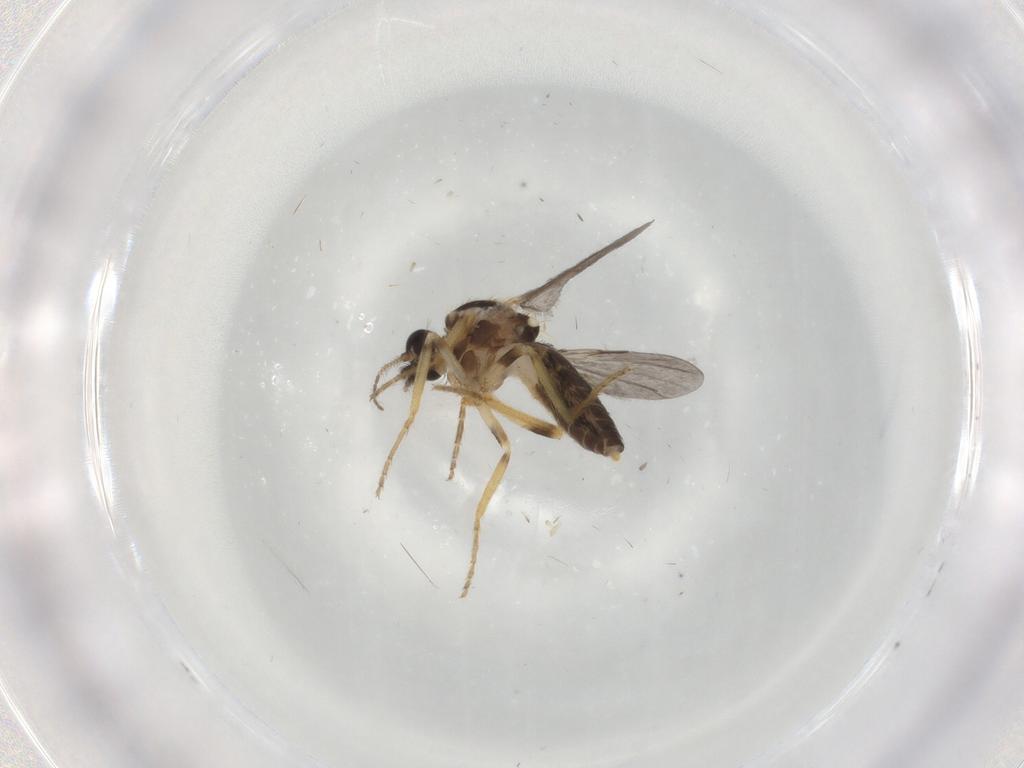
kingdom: Animalia
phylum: Arthropoda
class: Insecta
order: Diptera
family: Ceratopogonidae
